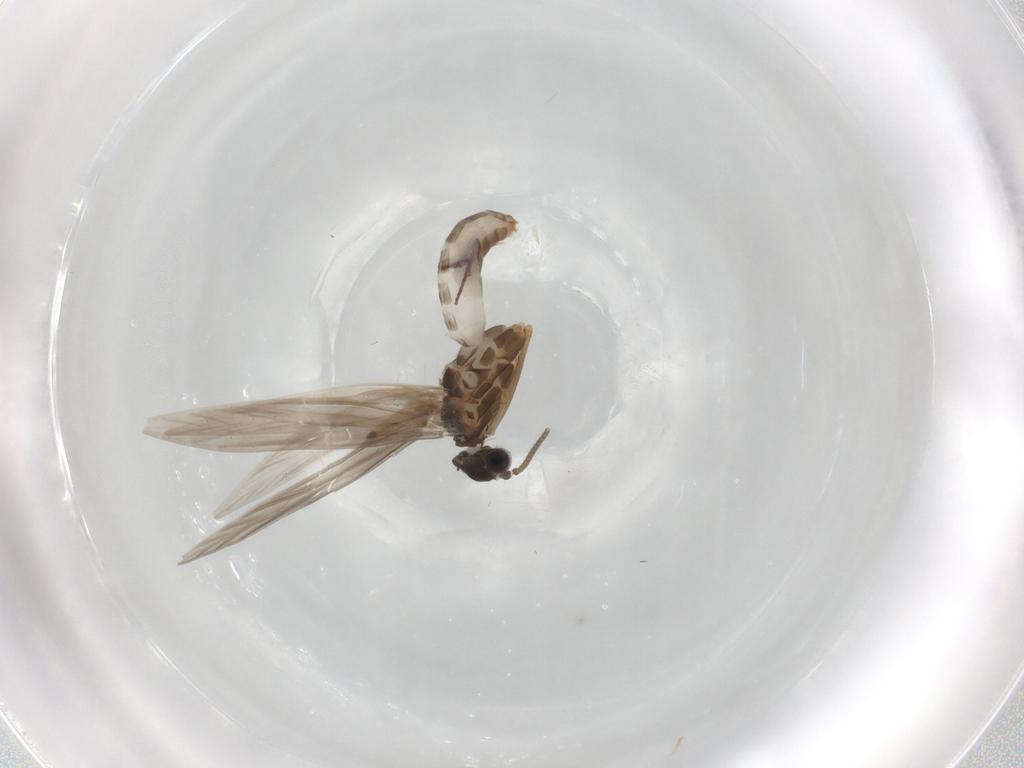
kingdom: Animalia
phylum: Arthropoda
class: Insecta
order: Trichoptera
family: Hydroptilidae
